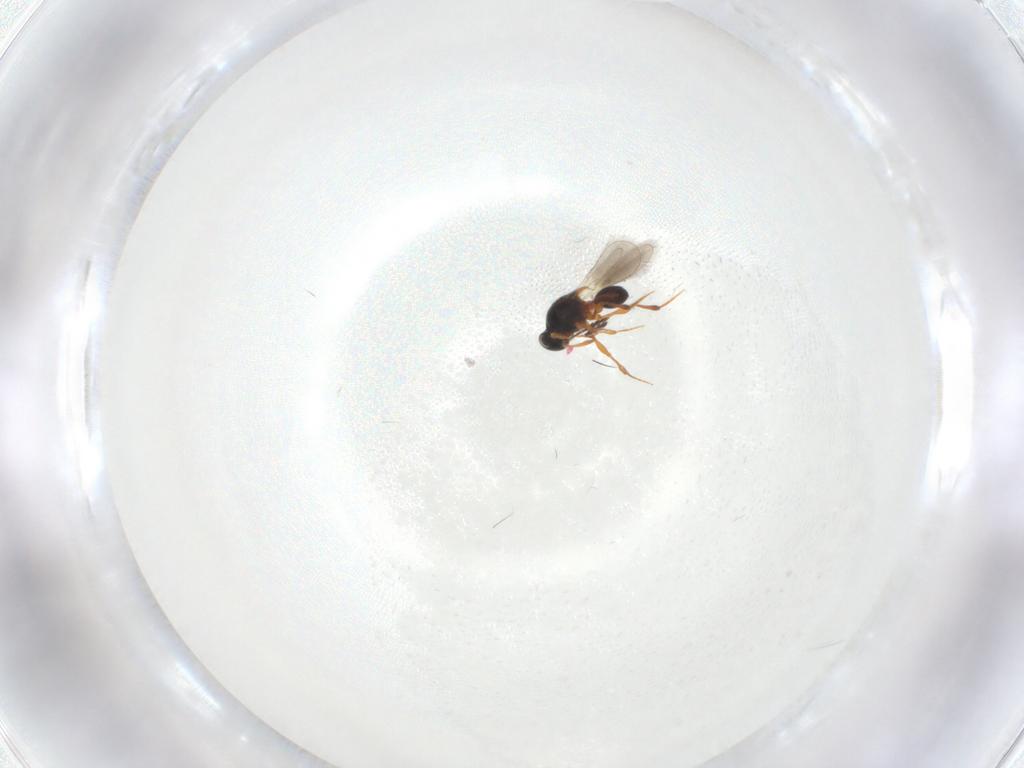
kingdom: Animalia
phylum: Arthropoda
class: Insecta
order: Hymenoptera
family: Platygastridae
